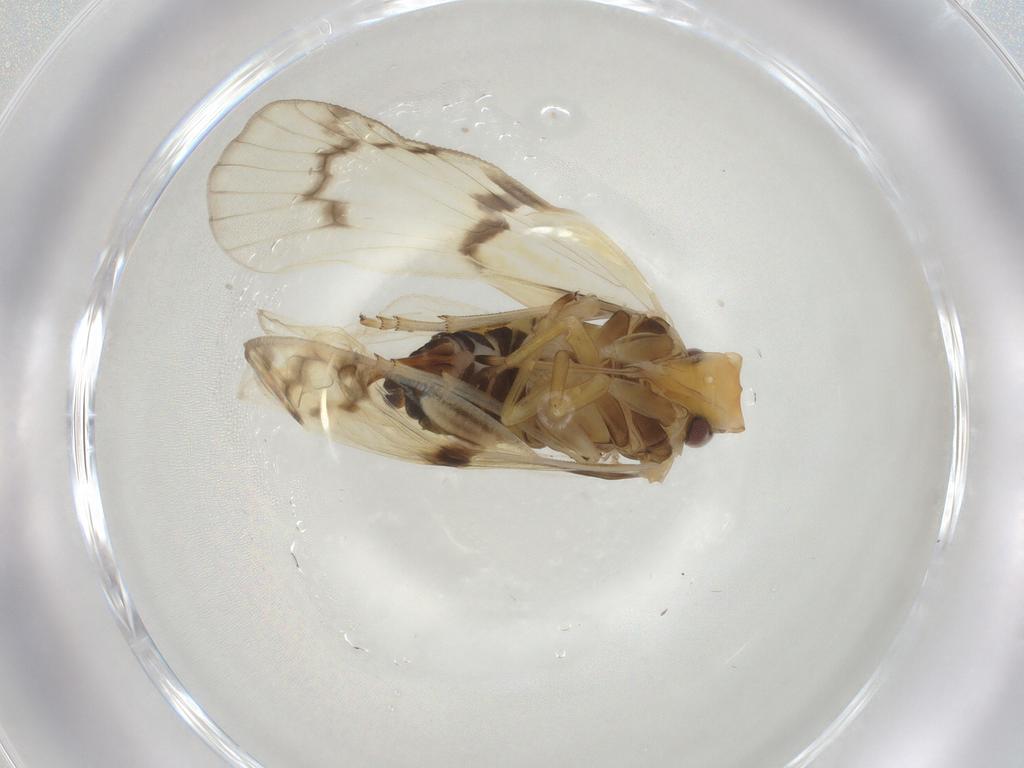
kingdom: Animalia
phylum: Arthropoda
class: Insecta
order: Hemiptera
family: Cixiidae
